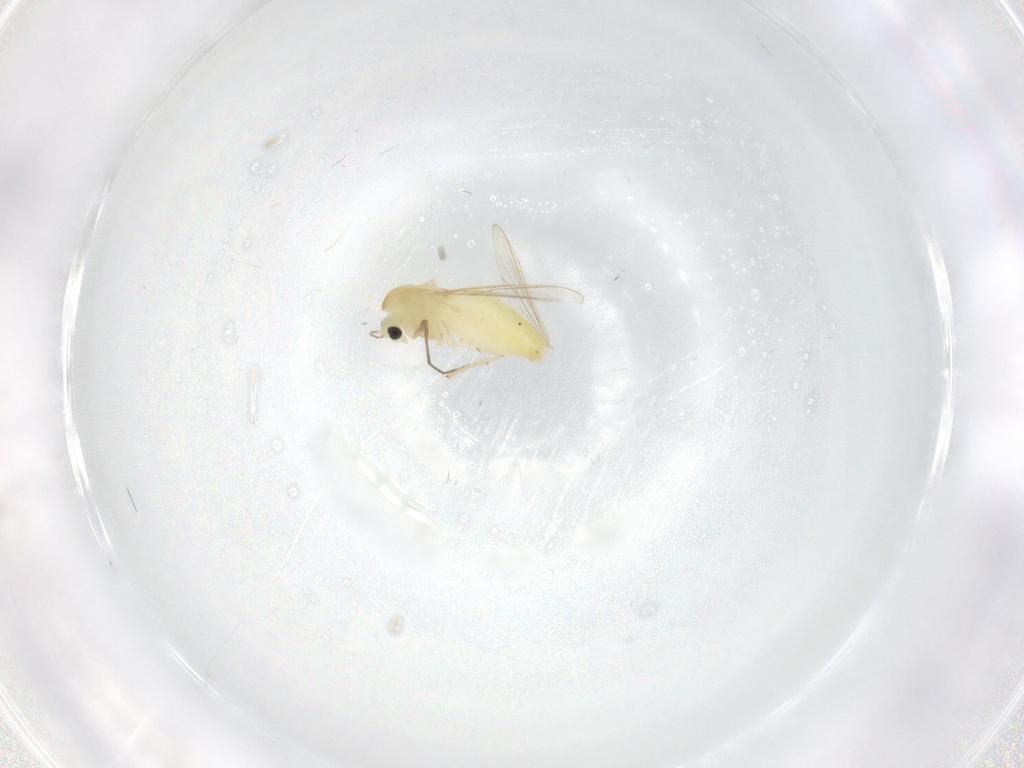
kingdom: Animalia
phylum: Arthropoda
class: Insecta
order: Diptera
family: Chironomidae
